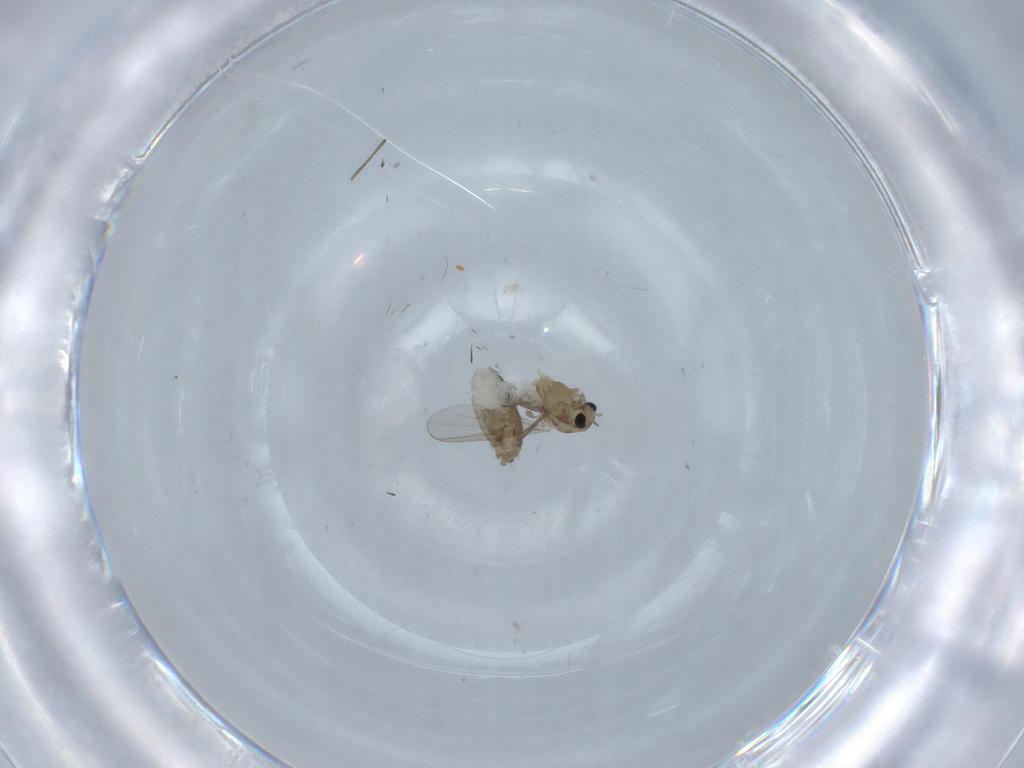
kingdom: Animalia
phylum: Arthropoda
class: Insecta
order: Diptera
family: Chironomidae
